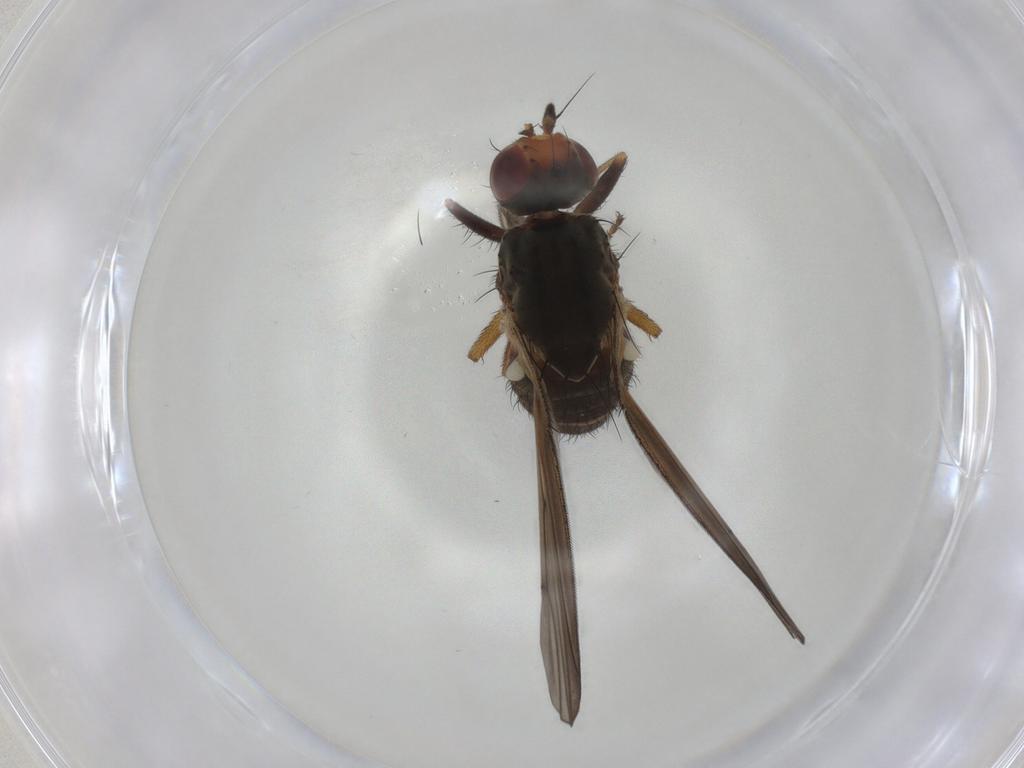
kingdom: Animalia
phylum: Arthropoda
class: Insecta
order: Diptera
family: Heleomyzidae
